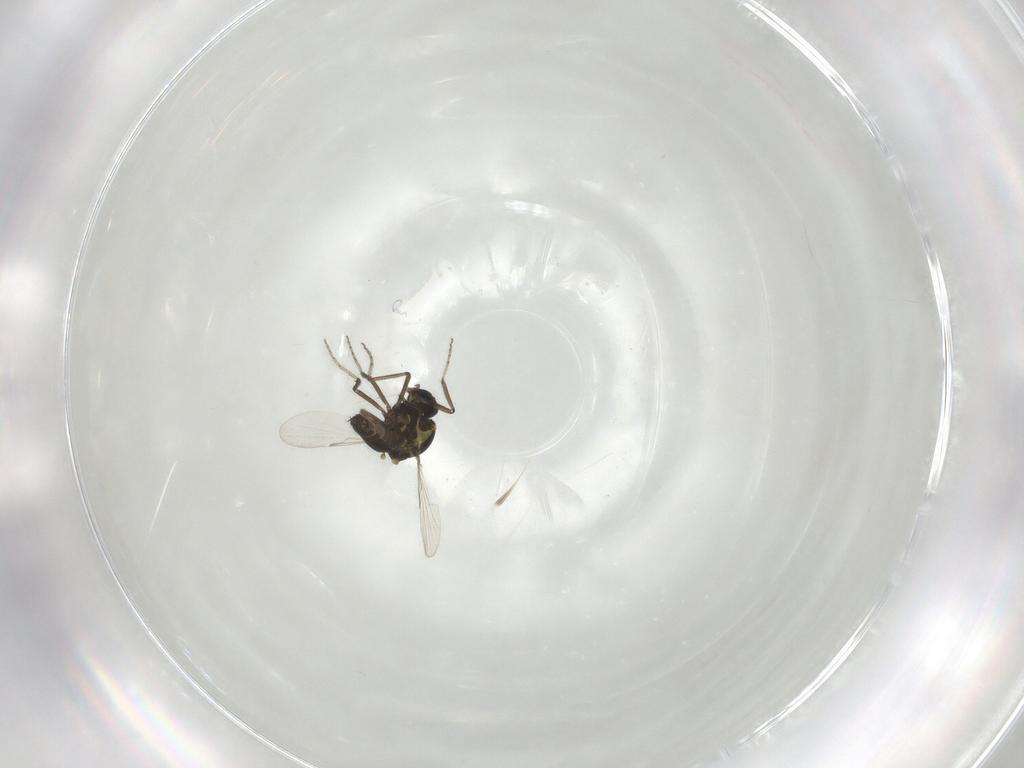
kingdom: Animalia
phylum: Arthropoda
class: Insecta
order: Diptera
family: Ceratopogonidae
